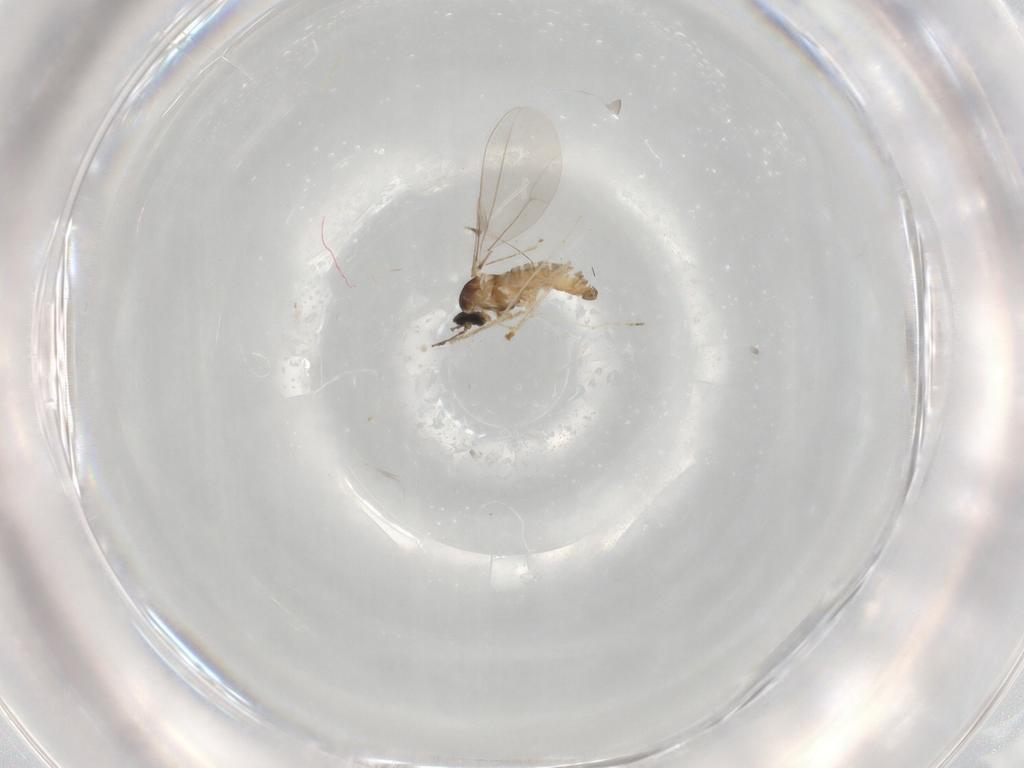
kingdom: Animalia
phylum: Arthropoda
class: Insecta
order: Diptera
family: Cecidomyiidae
